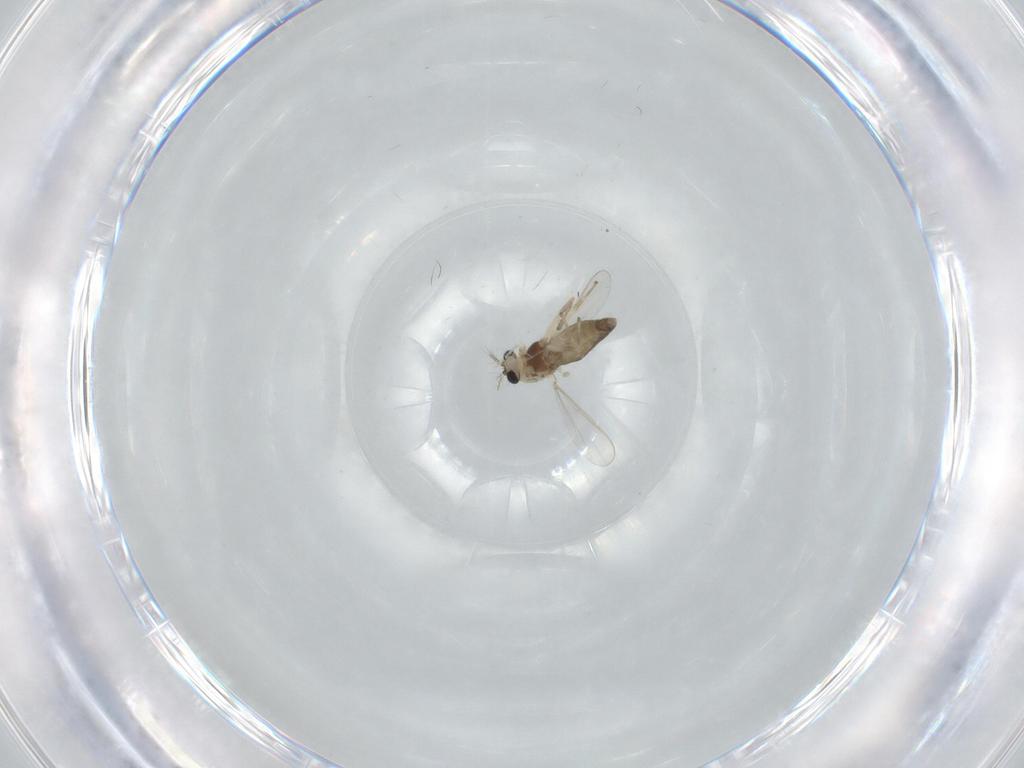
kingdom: Animalia
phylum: Arthropoda
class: Insecta
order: Diptera
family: Chironomidae
